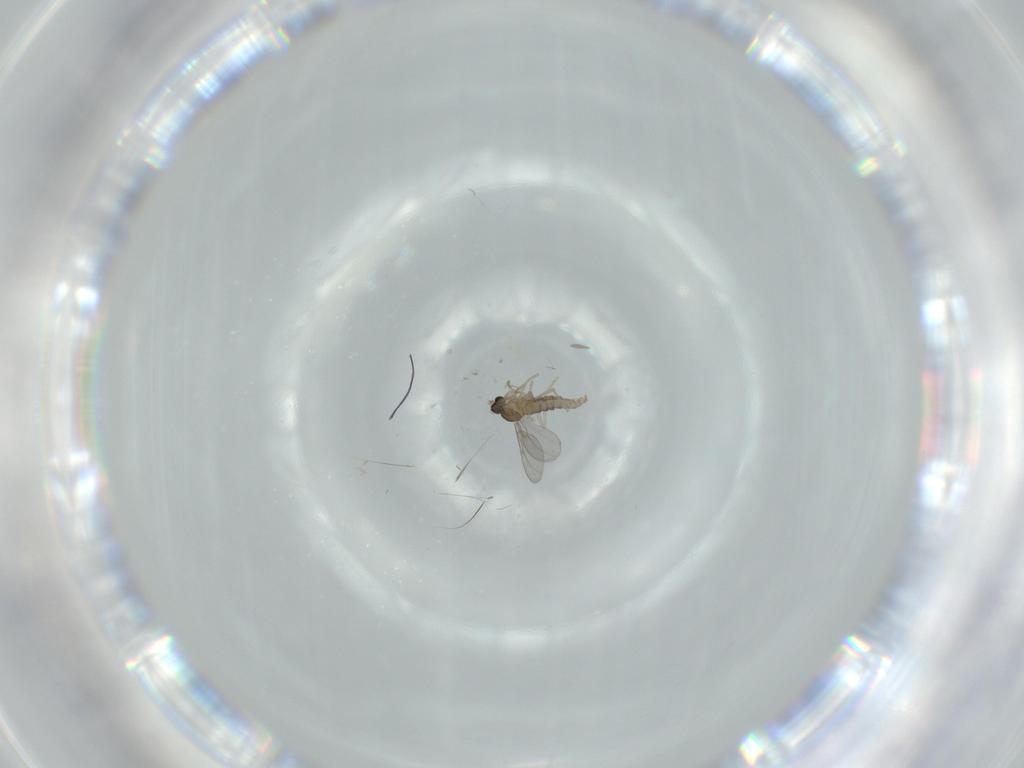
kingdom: Animalia
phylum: Arthropoda
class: Insecta
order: Diptera
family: Cecidomyiidae
